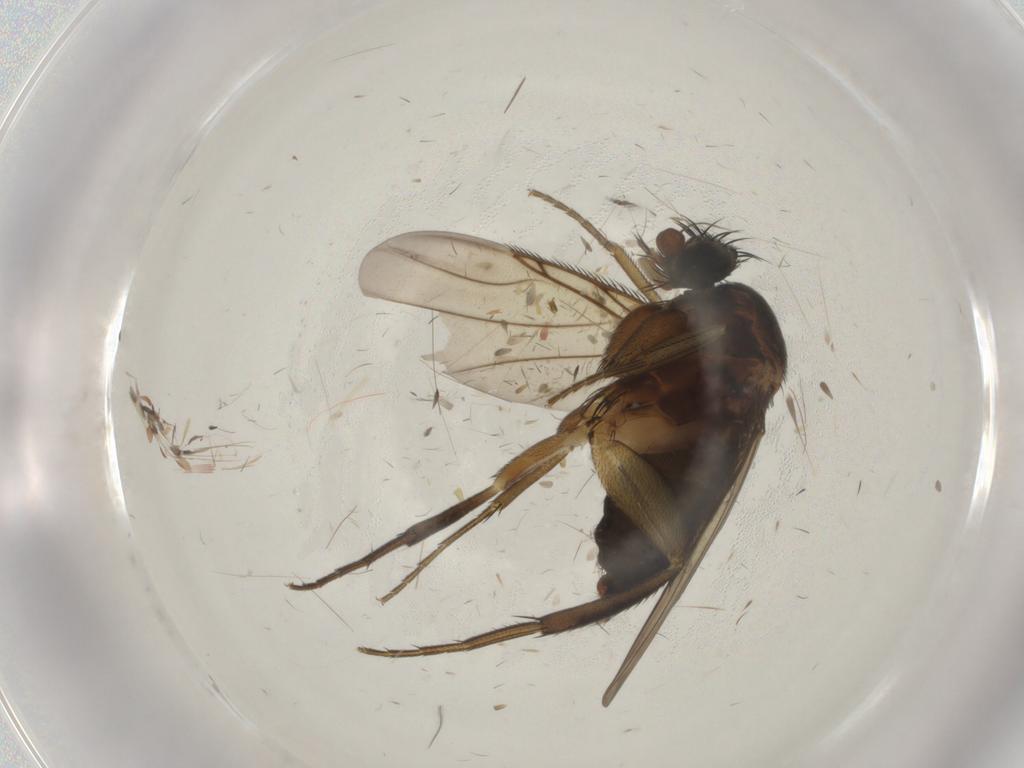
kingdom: Animalia
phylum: Arthropoda
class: Insecta
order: Diptera
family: Phoridae
